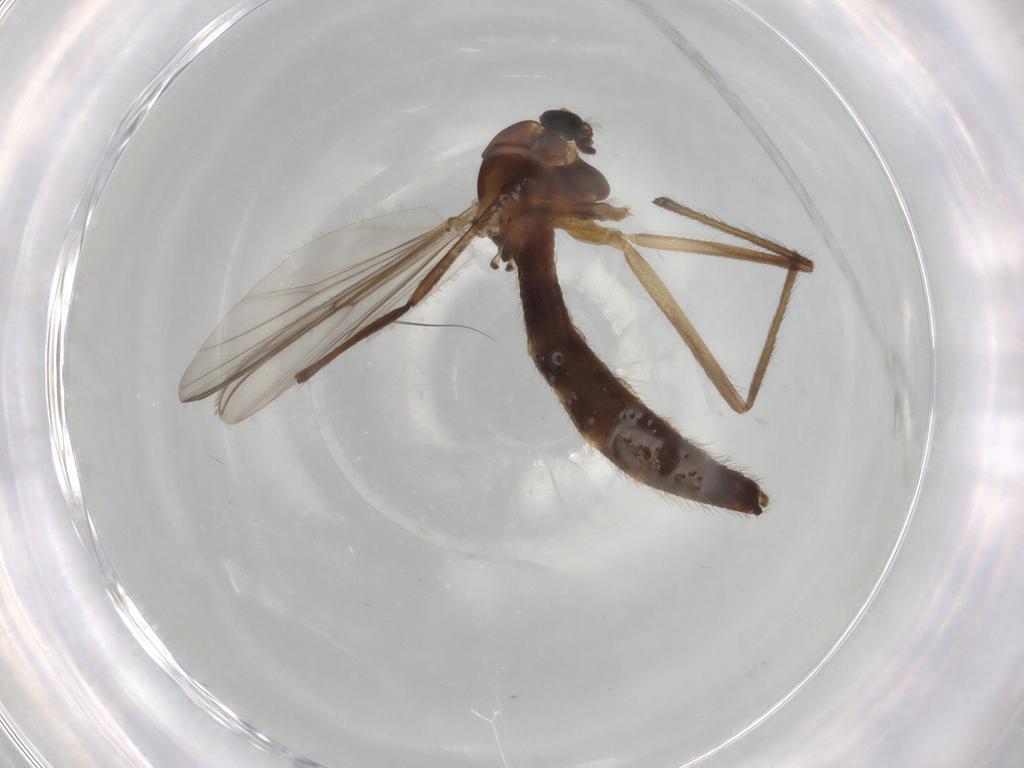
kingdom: Animalia
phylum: Arthropoda
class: Insecta
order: Diptera
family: Chironomidae
